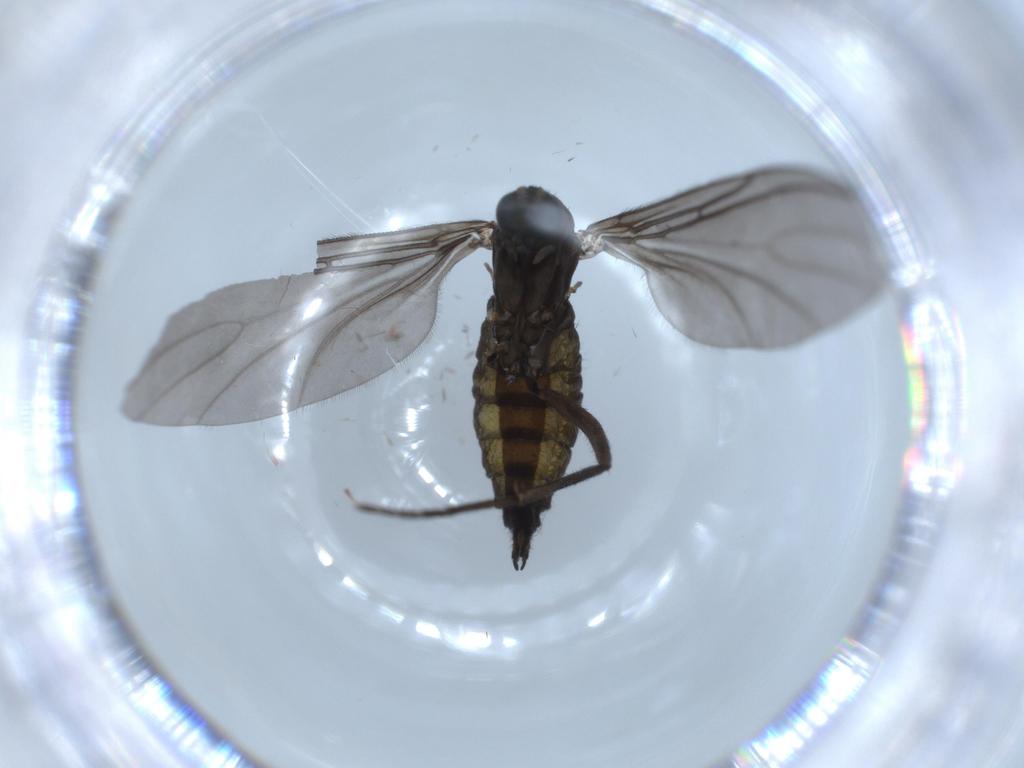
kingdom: Animalia
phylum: Arthropoda
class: Insecta
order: Diptera
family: Sciaridae
